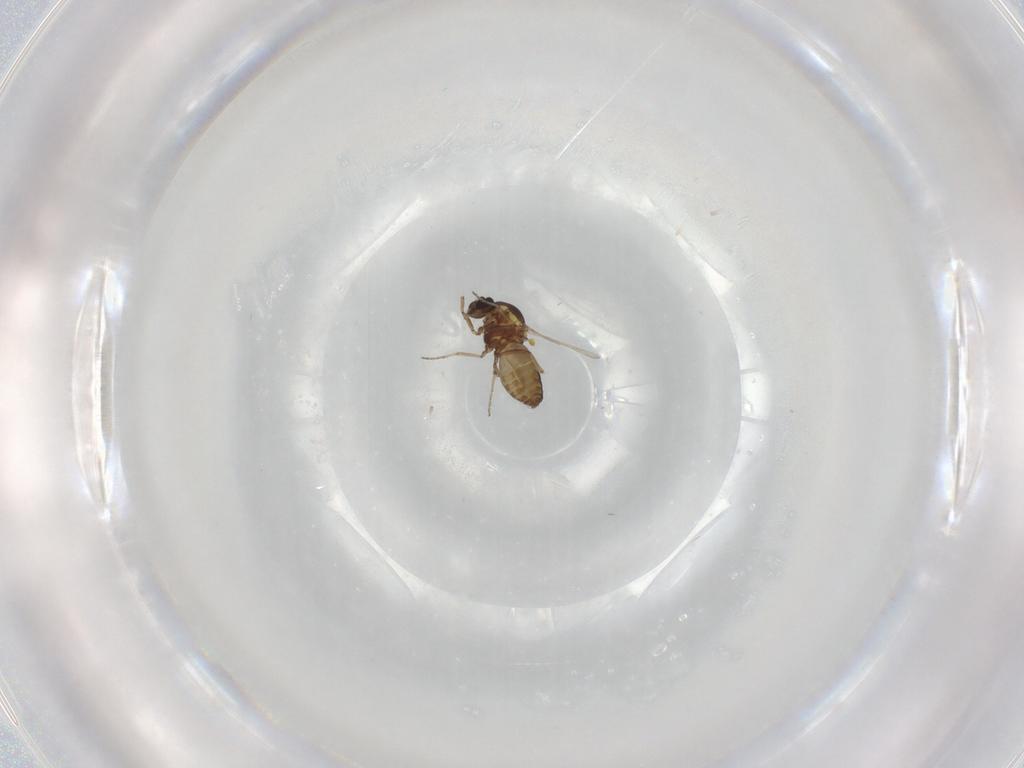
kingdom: Animalia
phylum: Arthropoda
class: Insecta
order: Diptera
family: Ceratopogonidae
